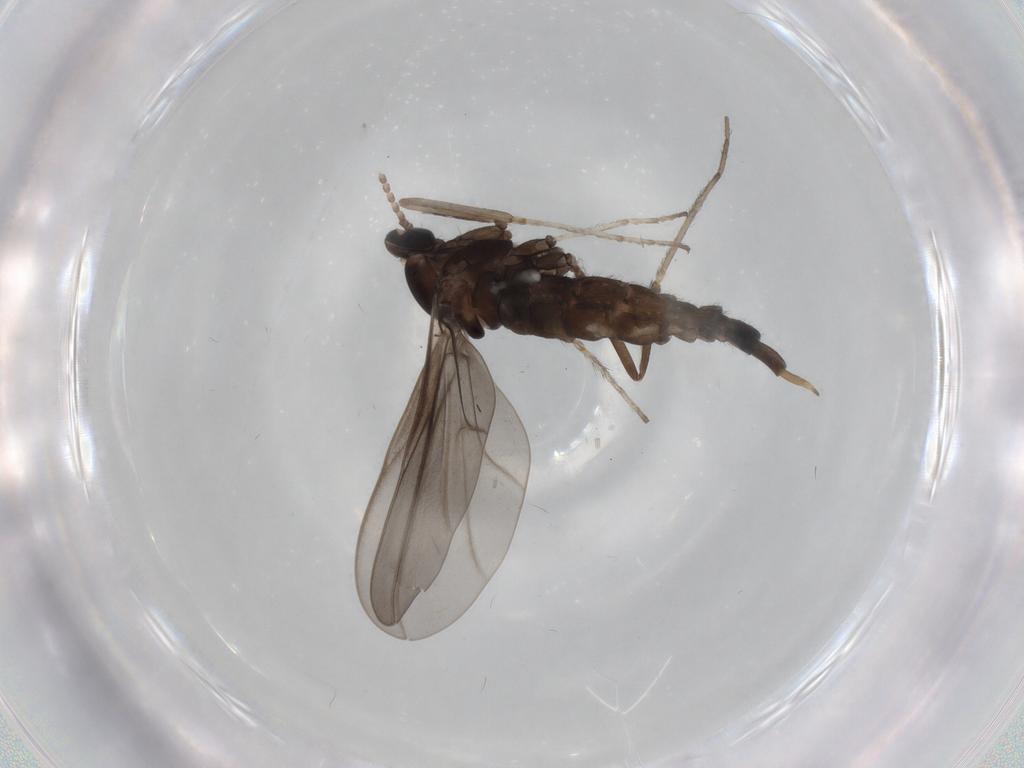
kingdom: Animalia
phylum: Arthropoda
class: Insecta
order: Diptera
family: Cecidomyiidae
